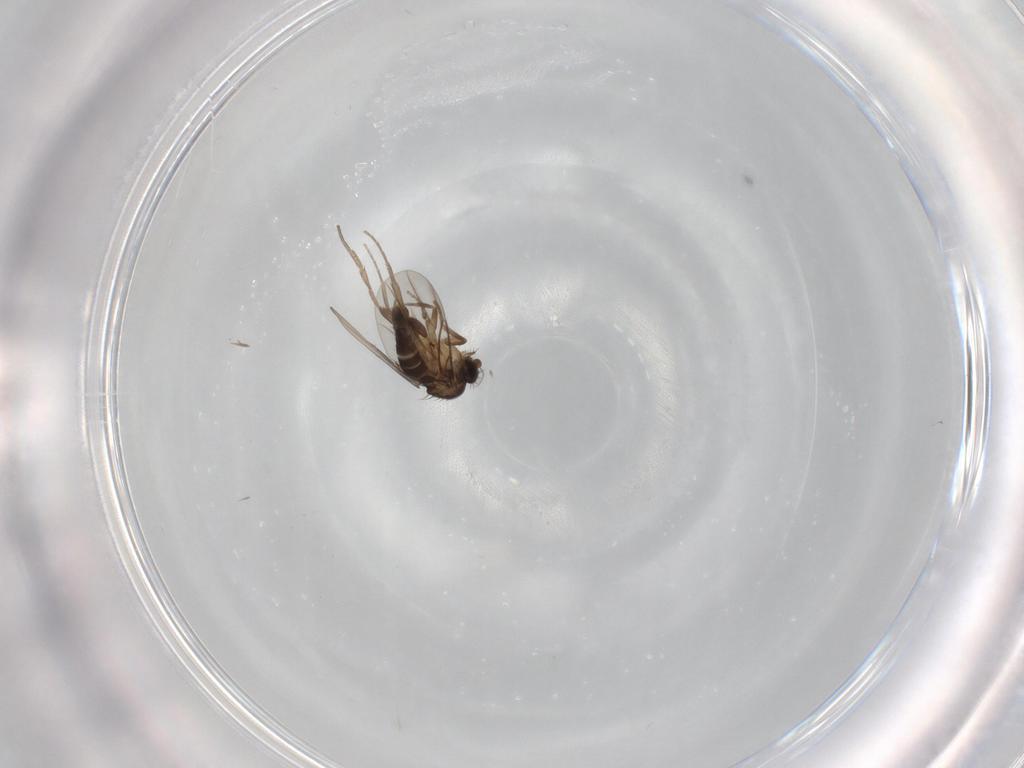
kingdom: Animalia
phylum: Arthropoda
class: Insecta
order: Diptera
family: Phoridae
